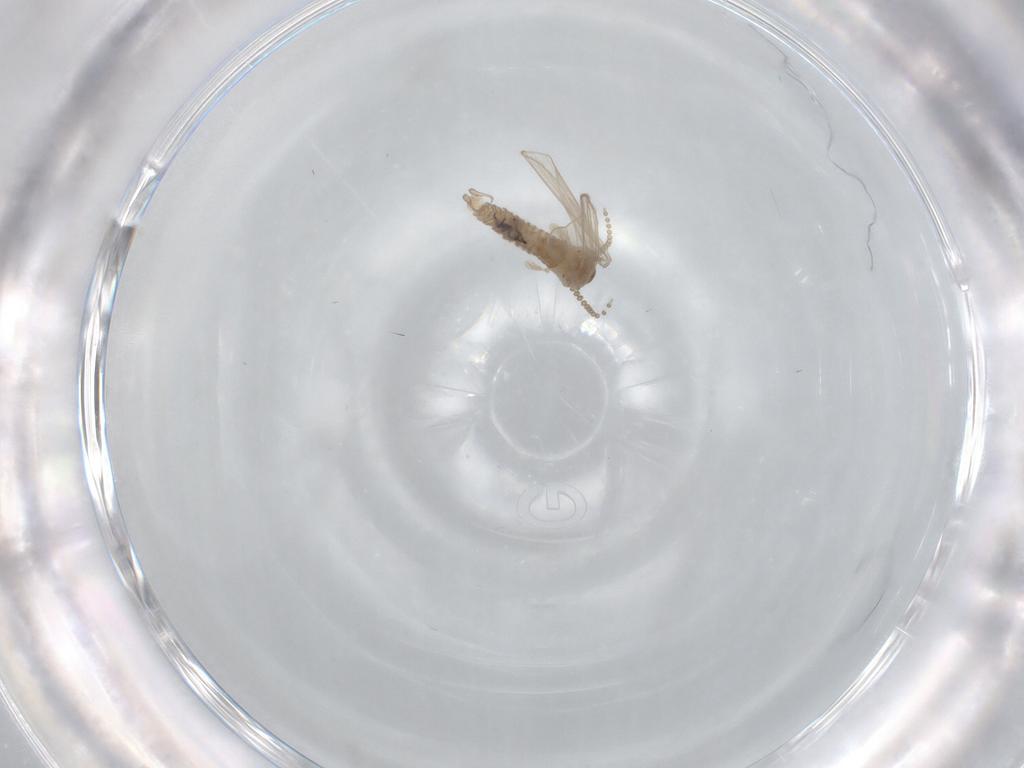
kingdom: Animalia
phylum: Arthropoda
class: Insecta
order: Diptera
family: Psychodidae
